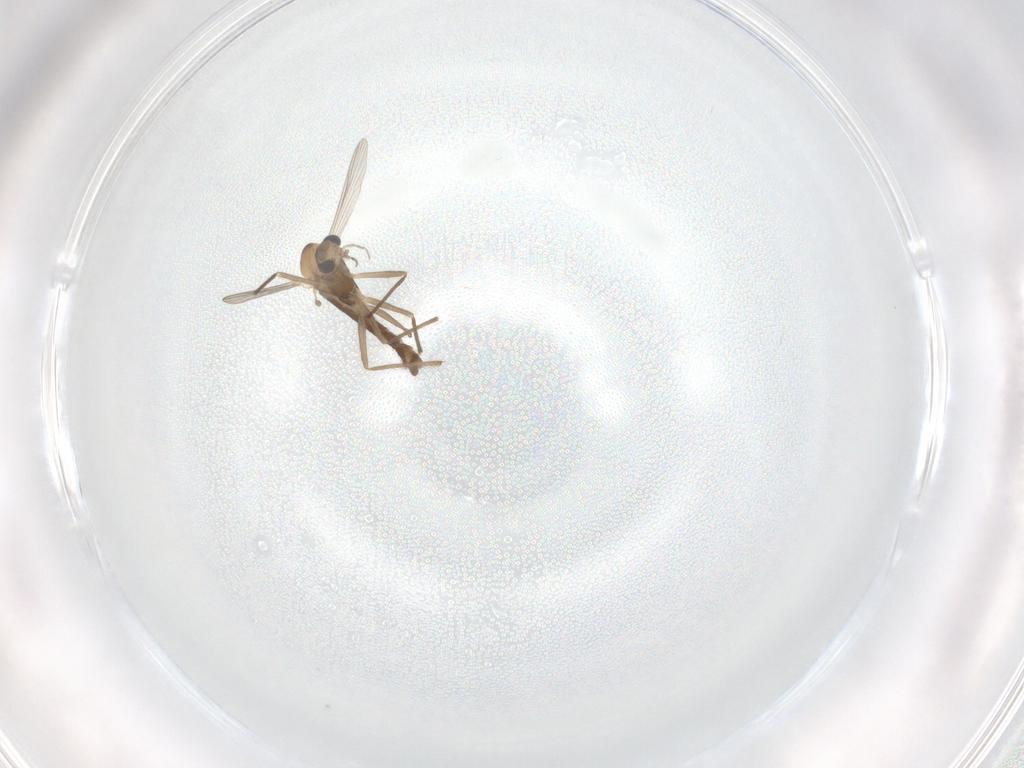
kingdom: Animalia
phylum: Arthropoda
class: Insecta
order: Diptera
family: Chironomidae
